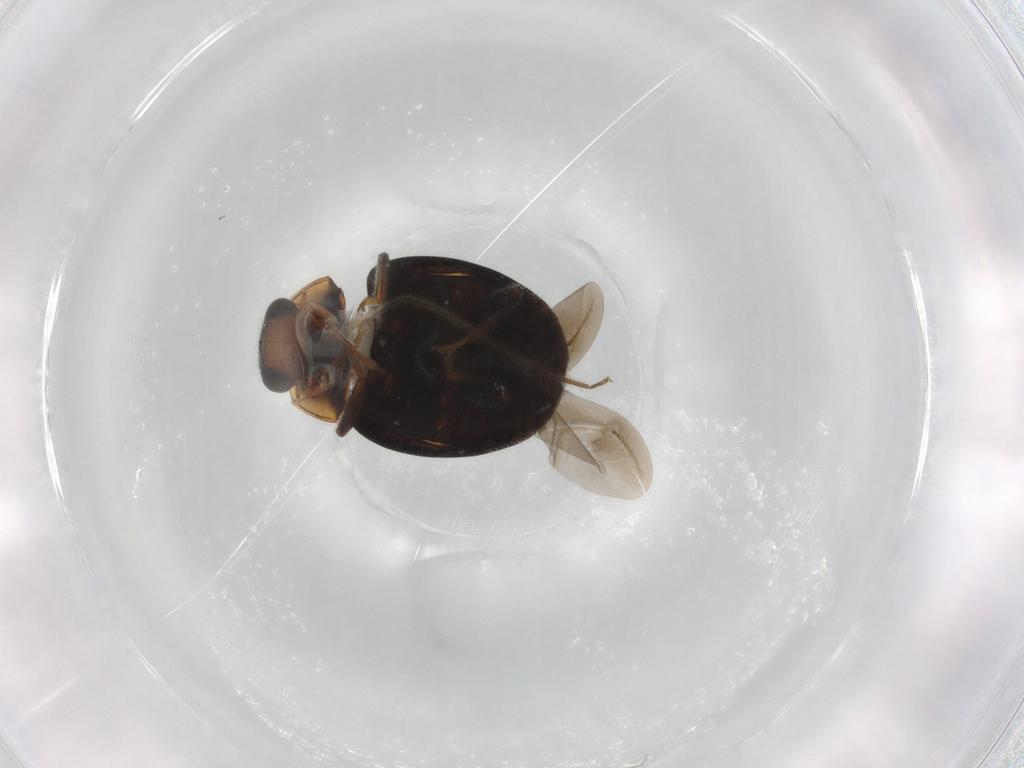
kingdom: Animalia
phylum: Arthropoda
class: Insecta
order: Coleoptera
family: Coccinellidae
